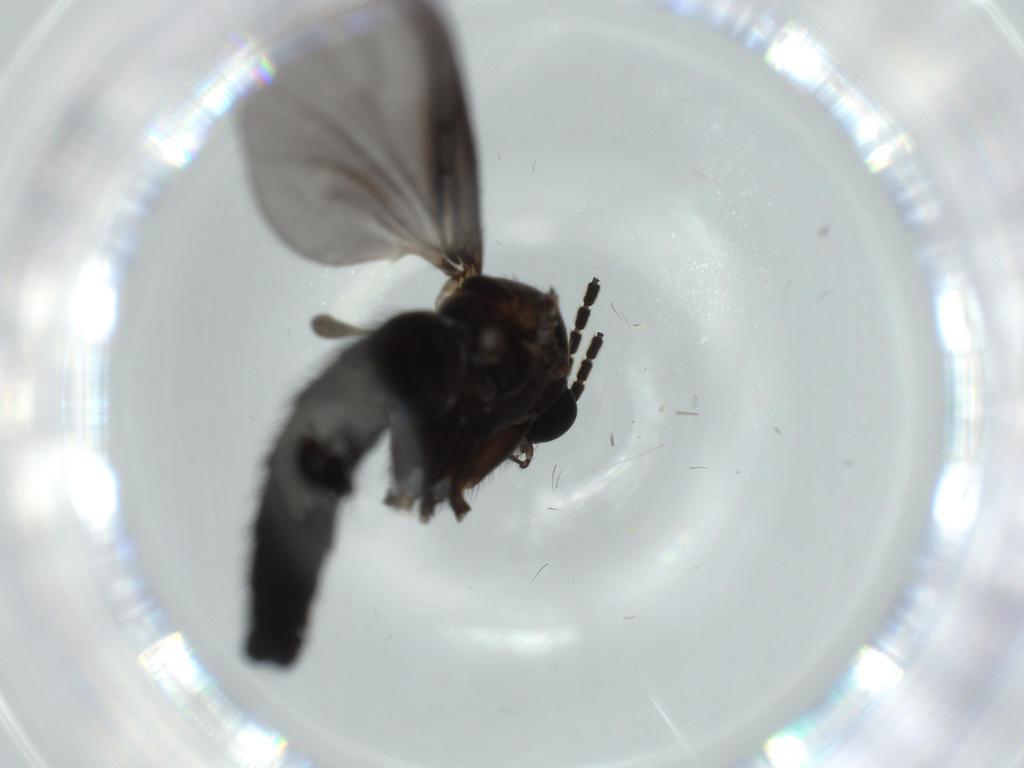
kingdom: Animalia
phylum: Arthropoda
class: Insecta
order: Diptera
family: Sciaridae
